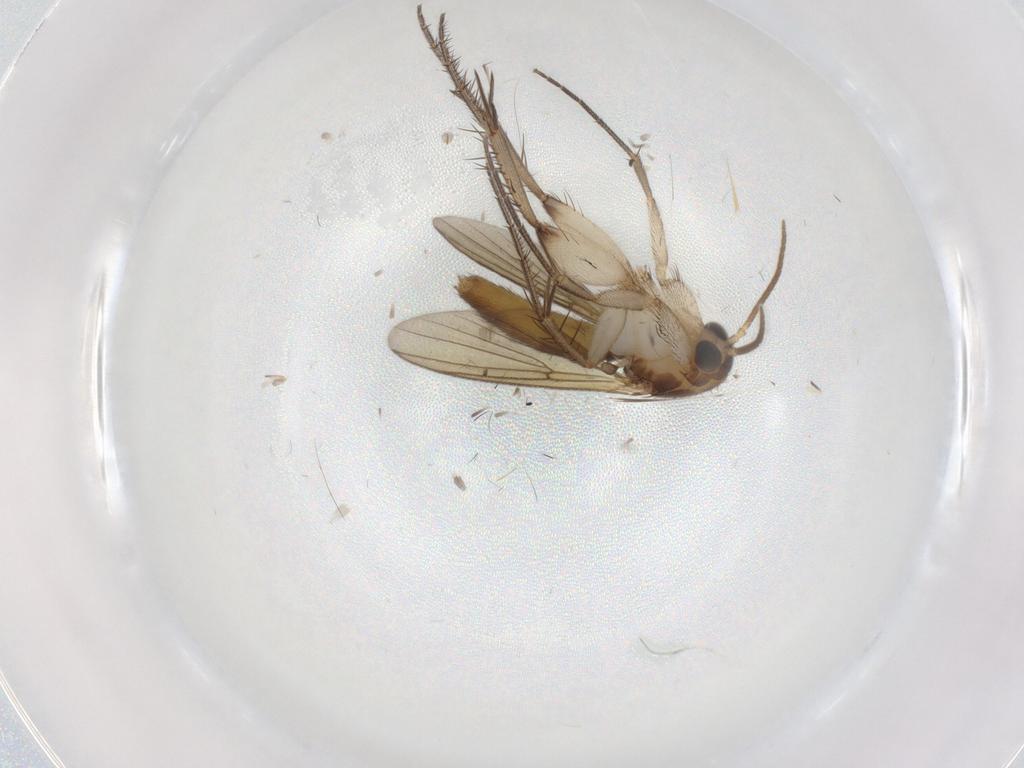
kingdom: Animalia
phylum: Arthropoda
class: Insecta
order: Diptera
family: Mycetophilidae
